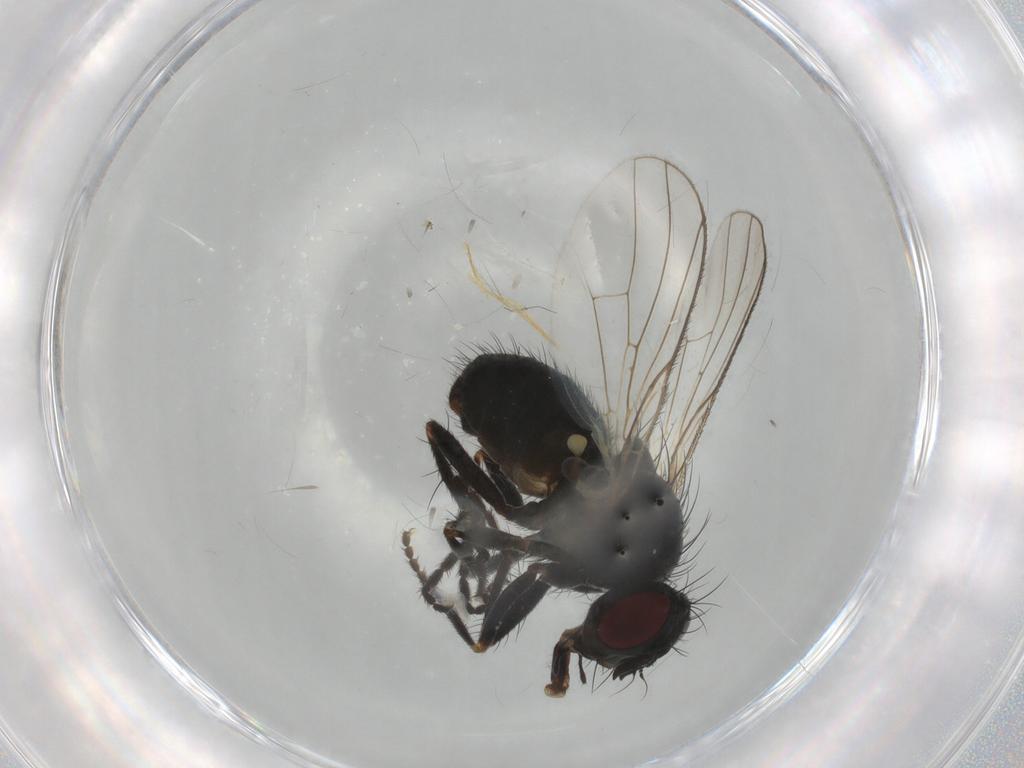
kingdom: Animalia
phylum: Arthropoda
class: Insecta
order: Diptera
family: Muscidae
